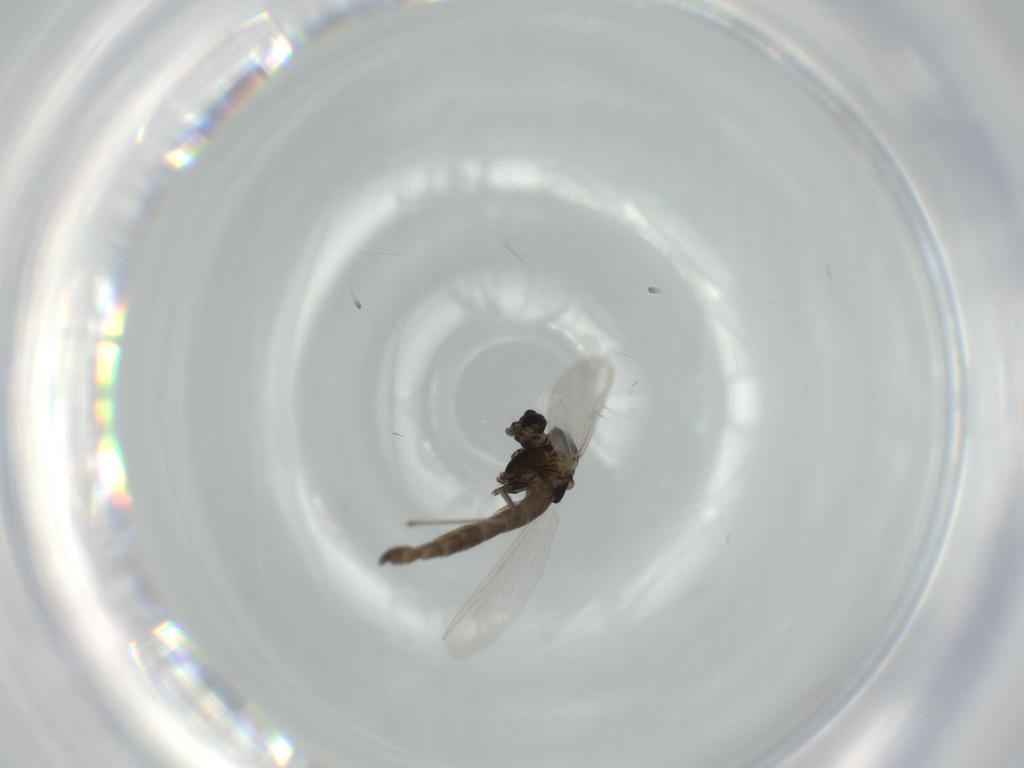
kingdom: Animalia
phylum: Arthropoda
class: Insecta
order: Diptera
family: Chironomidae
